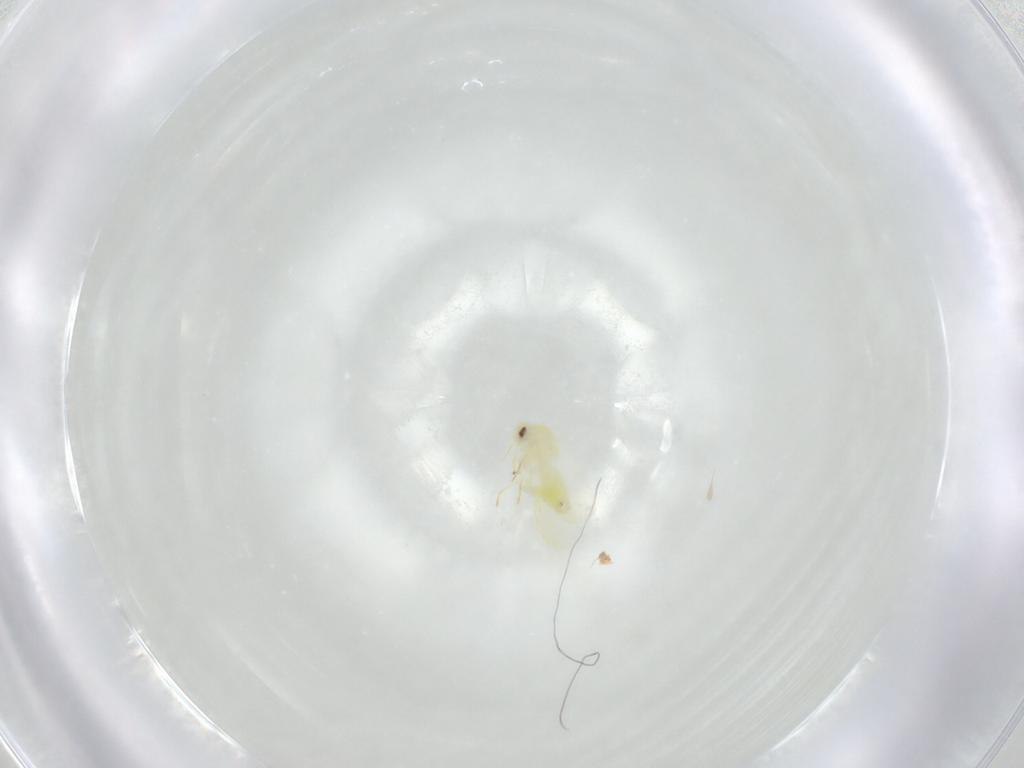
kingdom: Animalia
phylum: Arthropoda
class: Insecta
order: Hemiptera
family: Aleyrodidae
